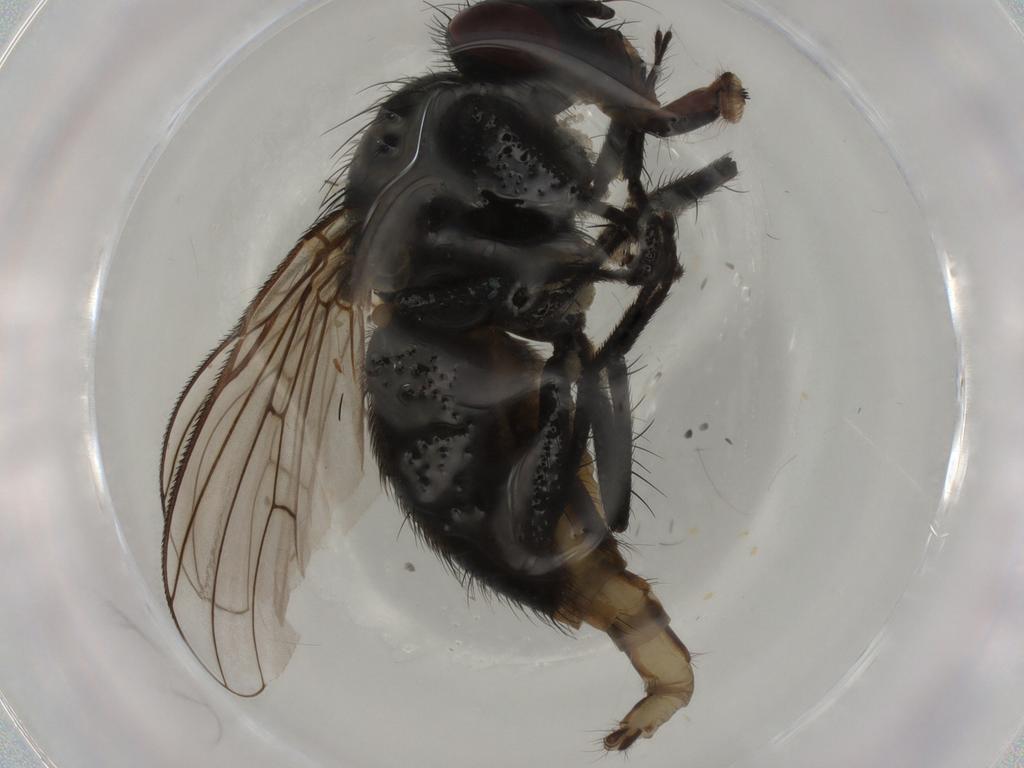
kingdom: Animalia
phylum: Arthropoda
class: Insecta
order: Diptera
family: Muscidae
